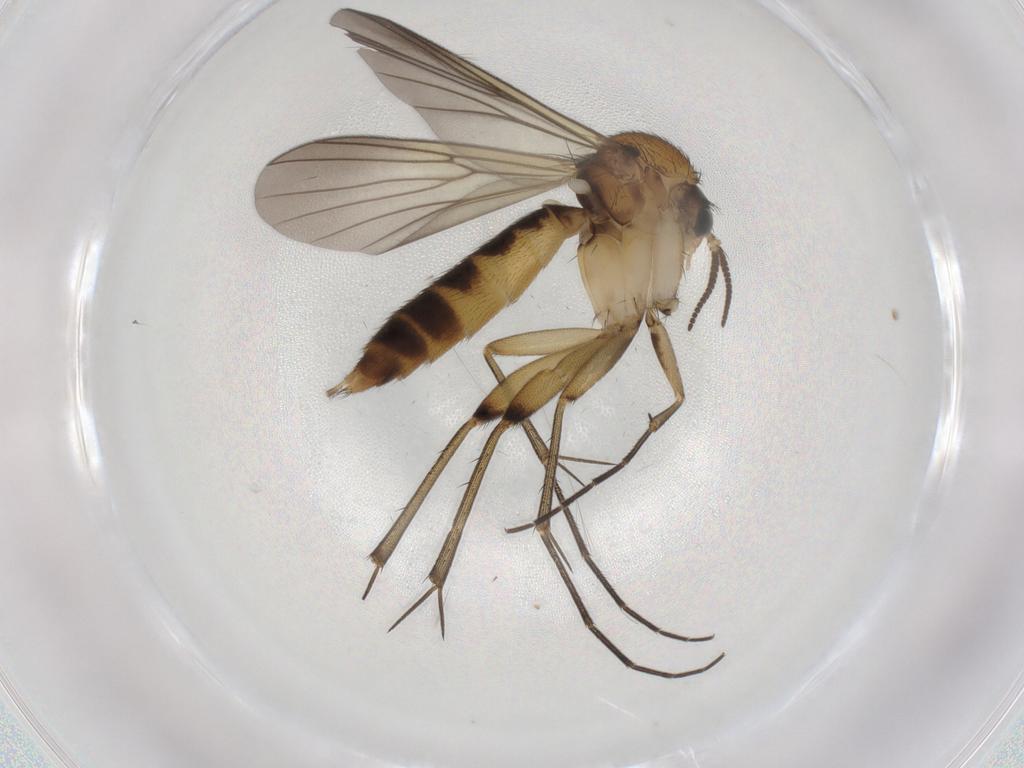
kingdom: Animalia
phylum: Arthropoda
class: Insecta
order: Diptera
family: Mycetophilidae
